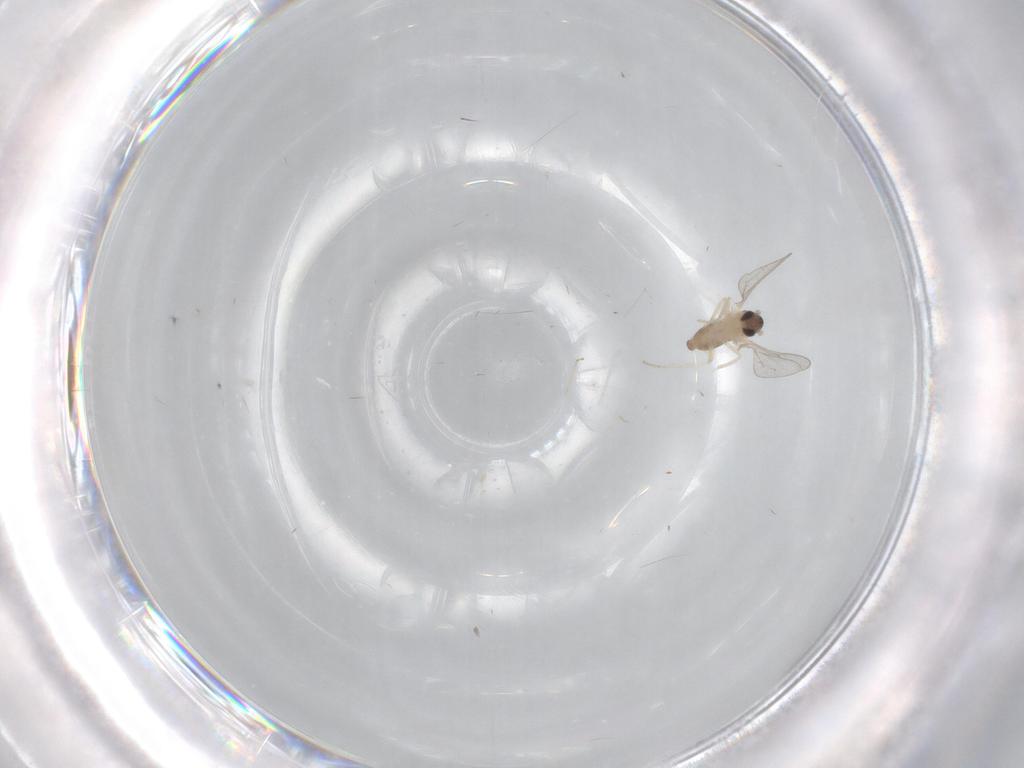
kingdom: Animalia
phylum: Arthropoda
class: Insecta
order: Diptera
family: Cecidomyiidae
